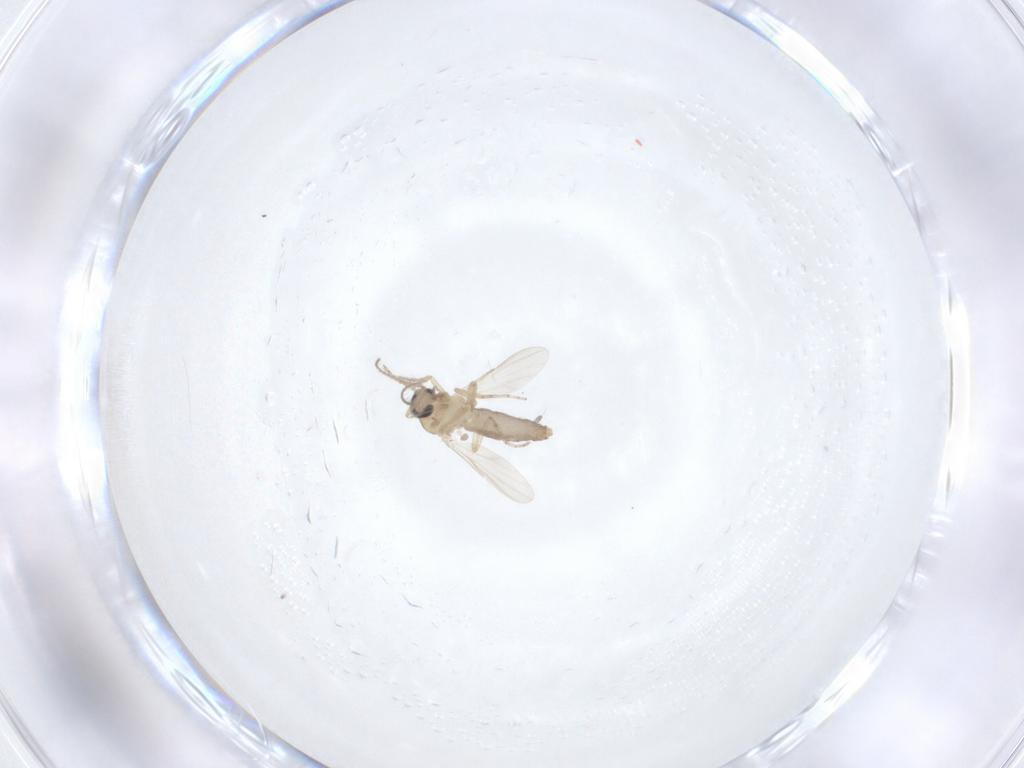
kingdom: Animalia
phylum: Arthropoda
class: Insecta
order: Diptera
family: Ceratopogonidae
